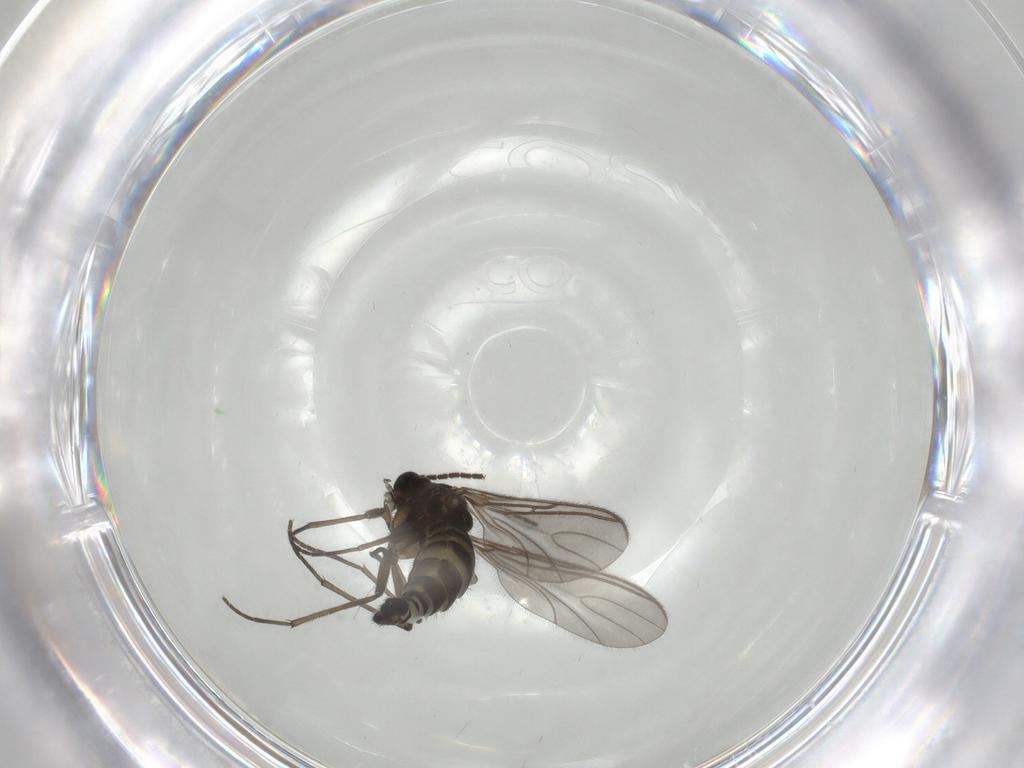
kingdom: Animalia
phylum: Arthropoda
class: Insecta
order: Diptera
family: Sciaridae
